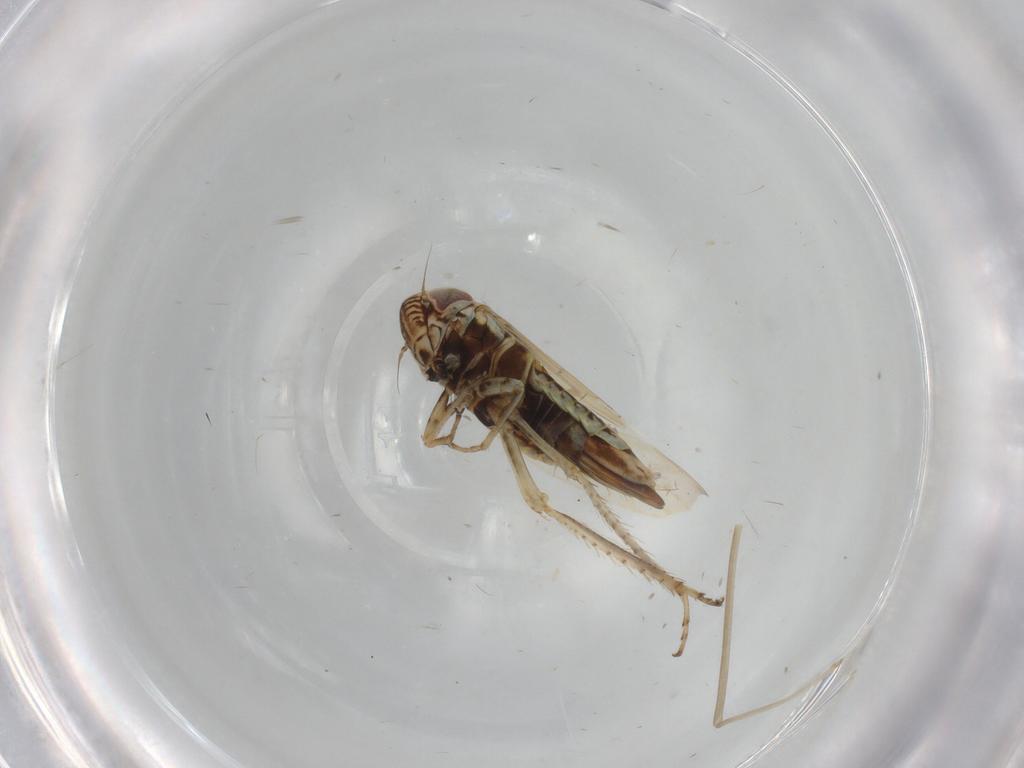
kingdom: Animalia
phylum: Arthropoda
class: Insecta
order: Hemiptera
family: Cicadellidae
